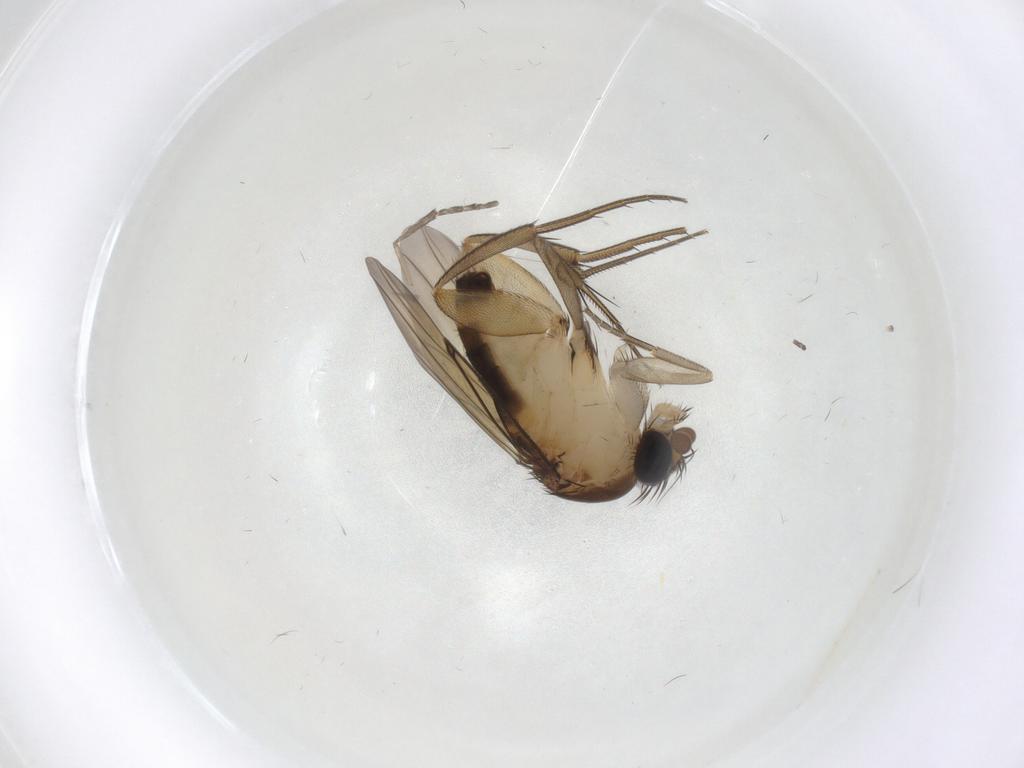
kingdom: Animalia
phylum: Arthropoda
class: Insecta
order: Diptera
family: Chironomidae
